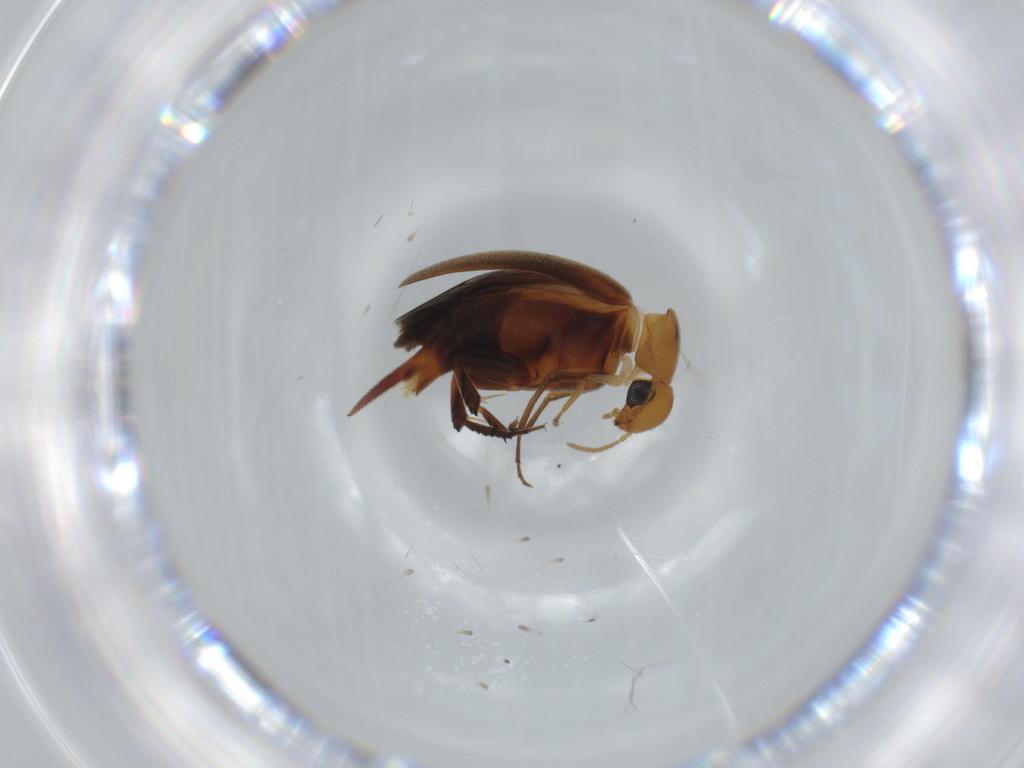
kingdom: Animalia
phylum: Arthropoda
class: Insecta
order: Coleoptera
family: Mordellidae
